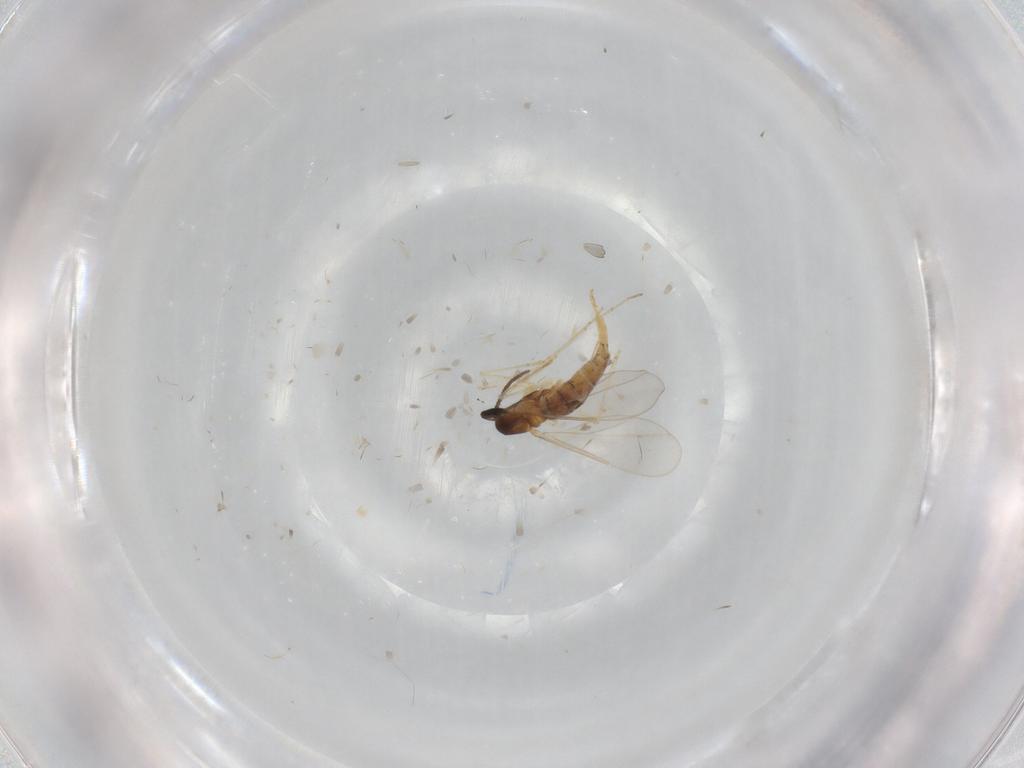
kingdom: Animalia
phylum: Arthropoda
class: Insecta
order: Diptera
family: Cecidomyiidae
